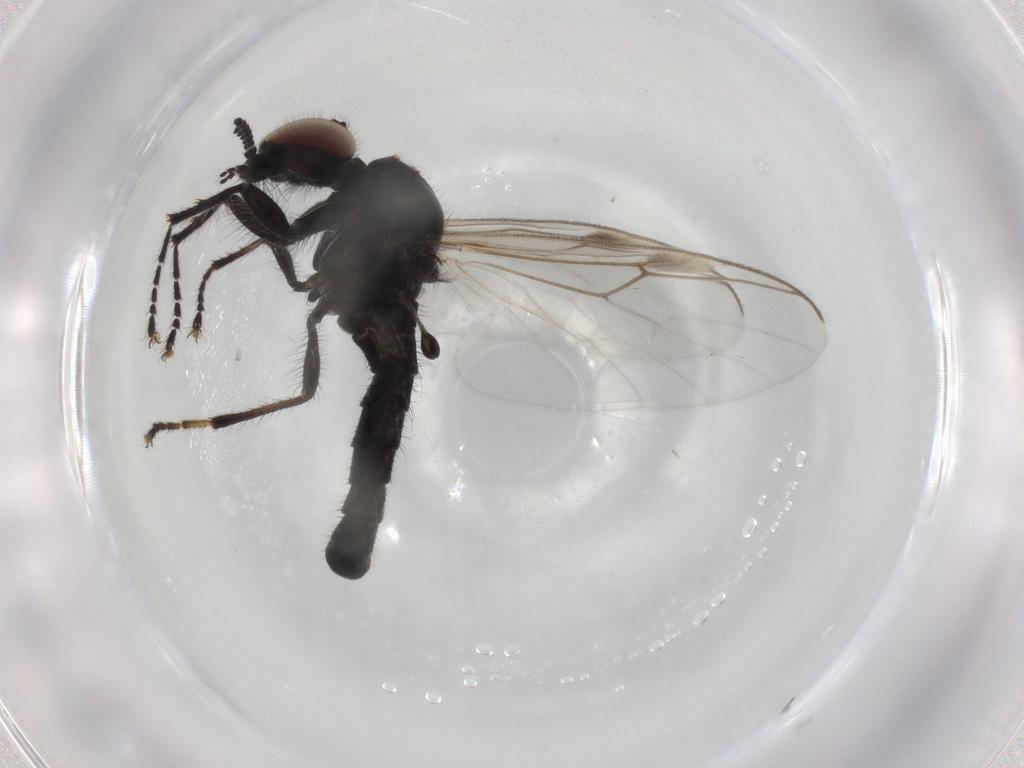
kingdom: Animalia
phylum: Arthropoda
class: Insecta
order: Diptera
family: Bibionidae
